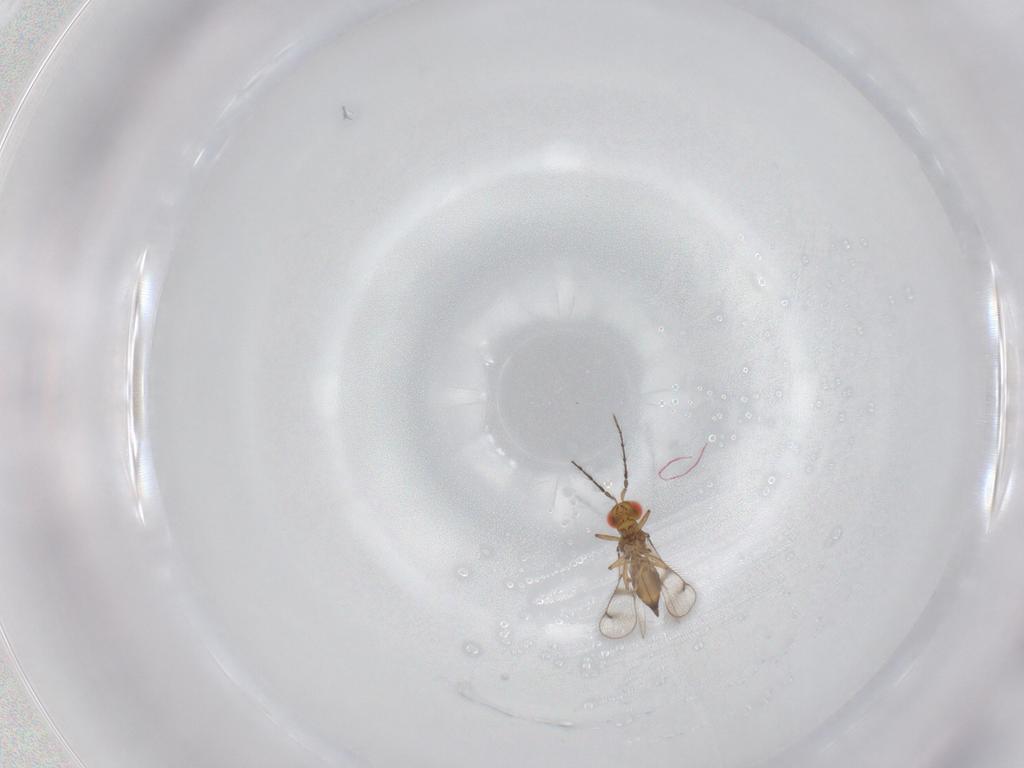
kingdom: Animalia
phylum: Arthropoda
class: Insecta
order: Hymenoptera
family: Eulophidae
